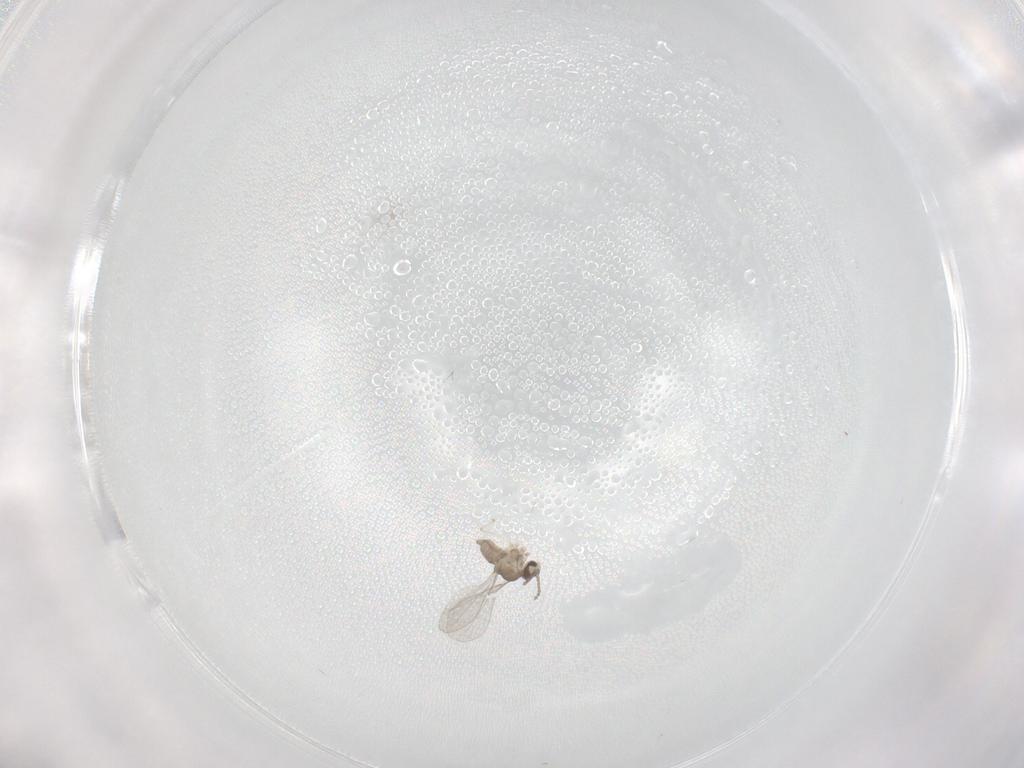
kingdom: Animalia
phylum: Arthropoda
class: Insecta
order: Diptera
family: Cecidomyiidae
